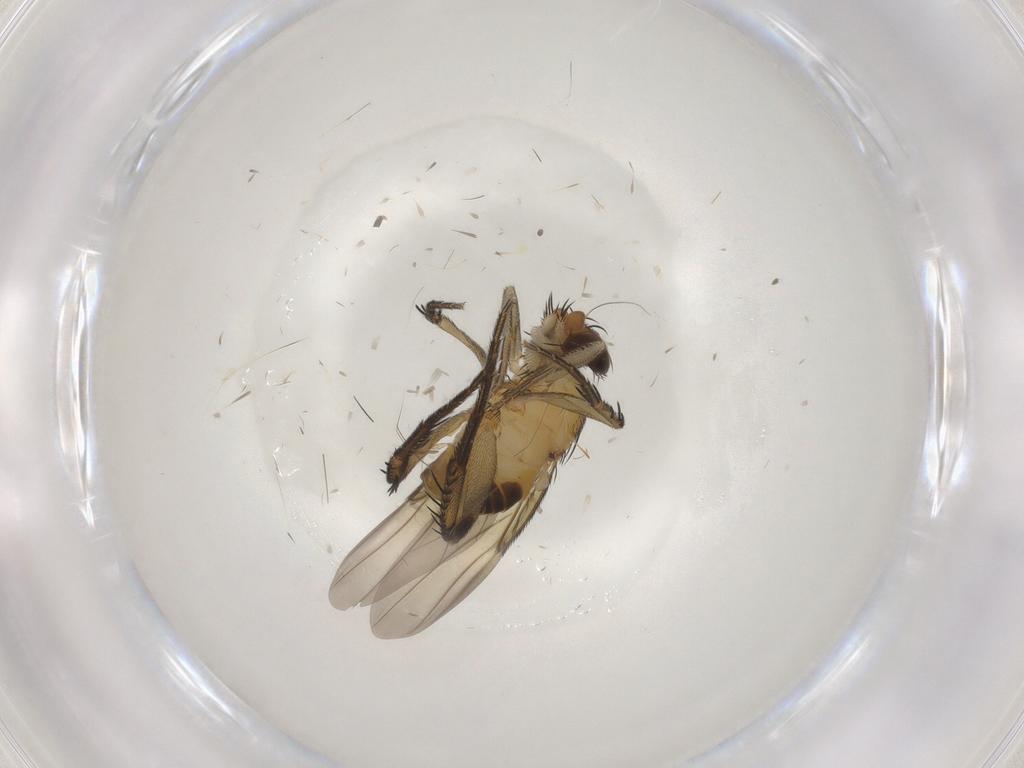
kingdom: Animalia
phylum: Arthropoda
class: Insecta
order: Diptera
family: Phoridae
